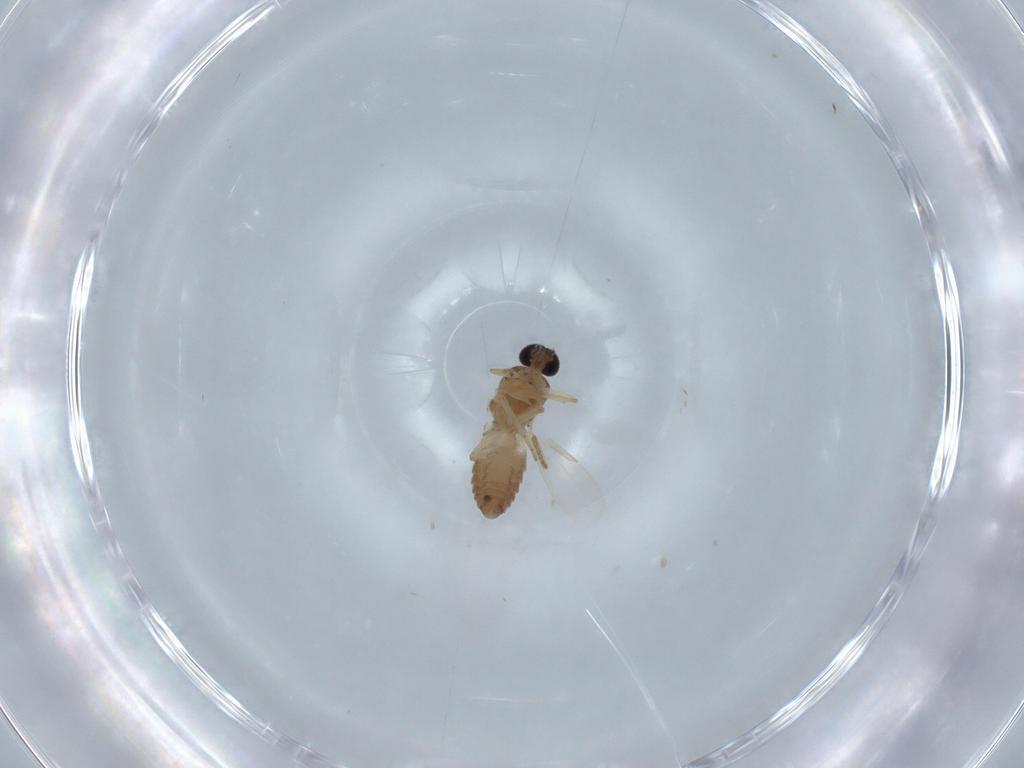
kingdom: Animalia
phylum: Arthropoda
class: Insecta
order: Diptera
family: Ceratopogonidae
